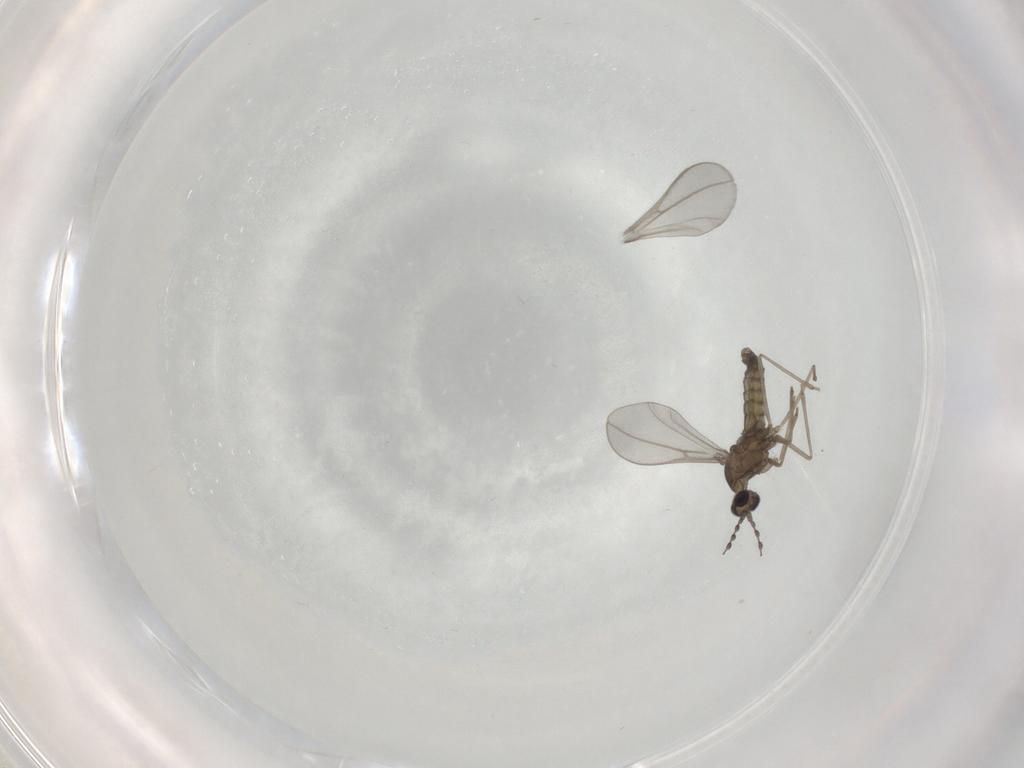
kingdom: Animalia
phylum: Arthropoda
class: Insecta
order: Diptera
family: Cecidomyiidae
